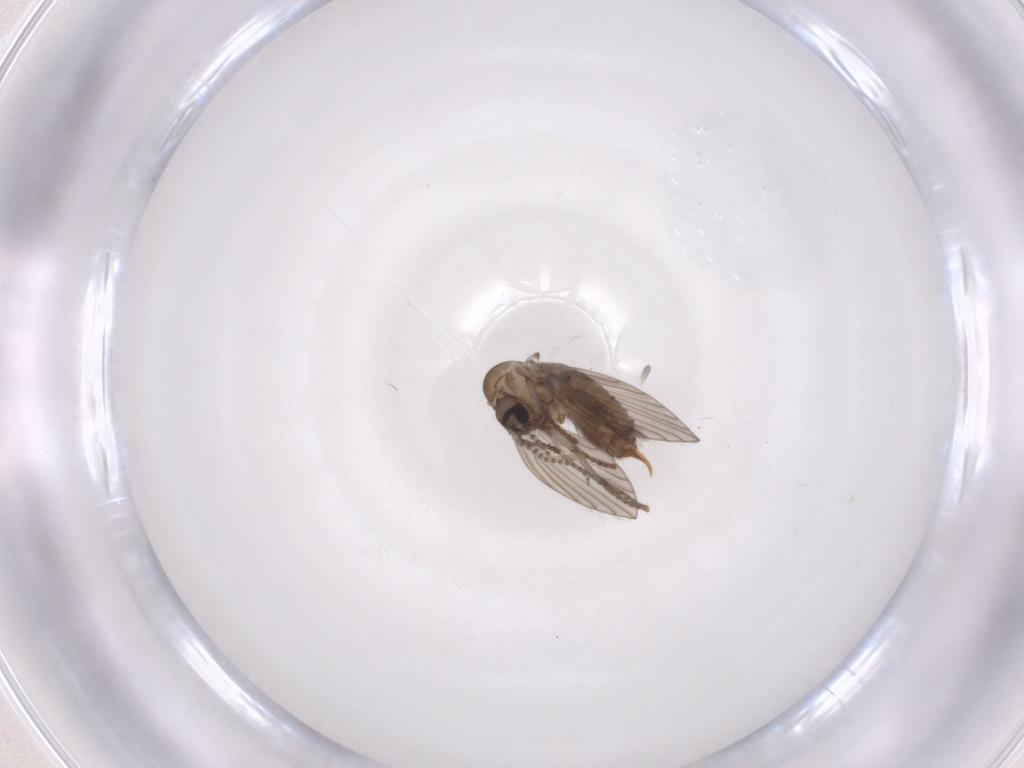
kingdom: Animalia
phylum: Arthropoda
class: Insecta
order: Diptera
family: Psychodidae
